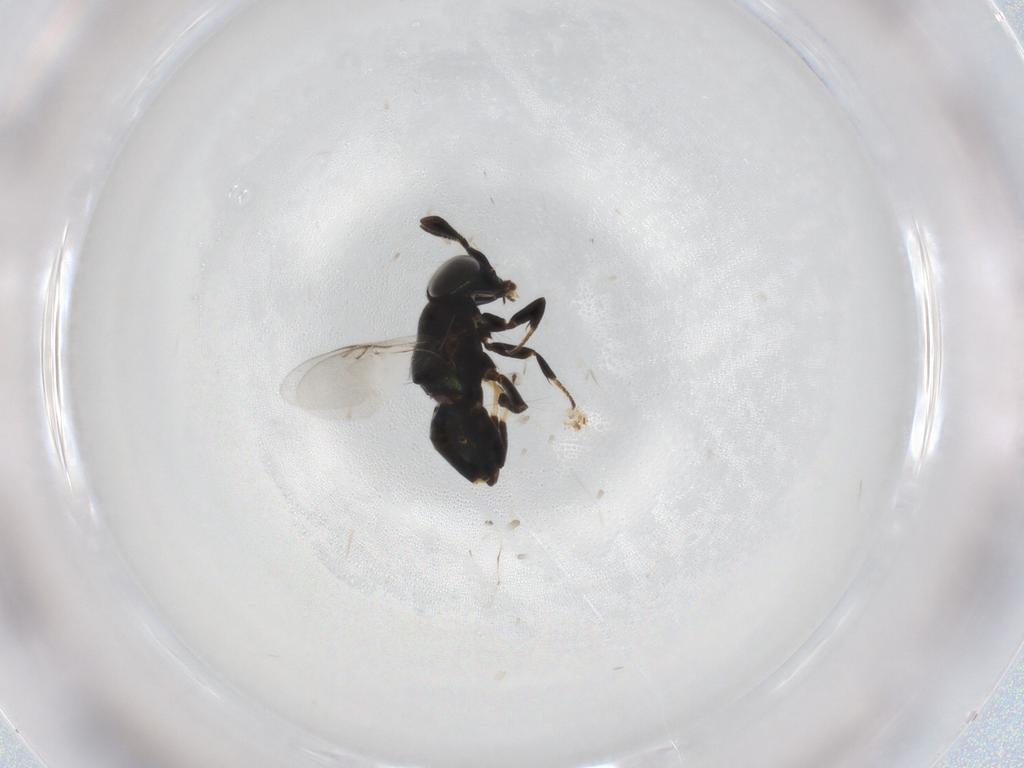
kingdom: Animalia
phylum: Arthropoda
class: Insecta
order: Hymenoptera
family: Encyrtidae
